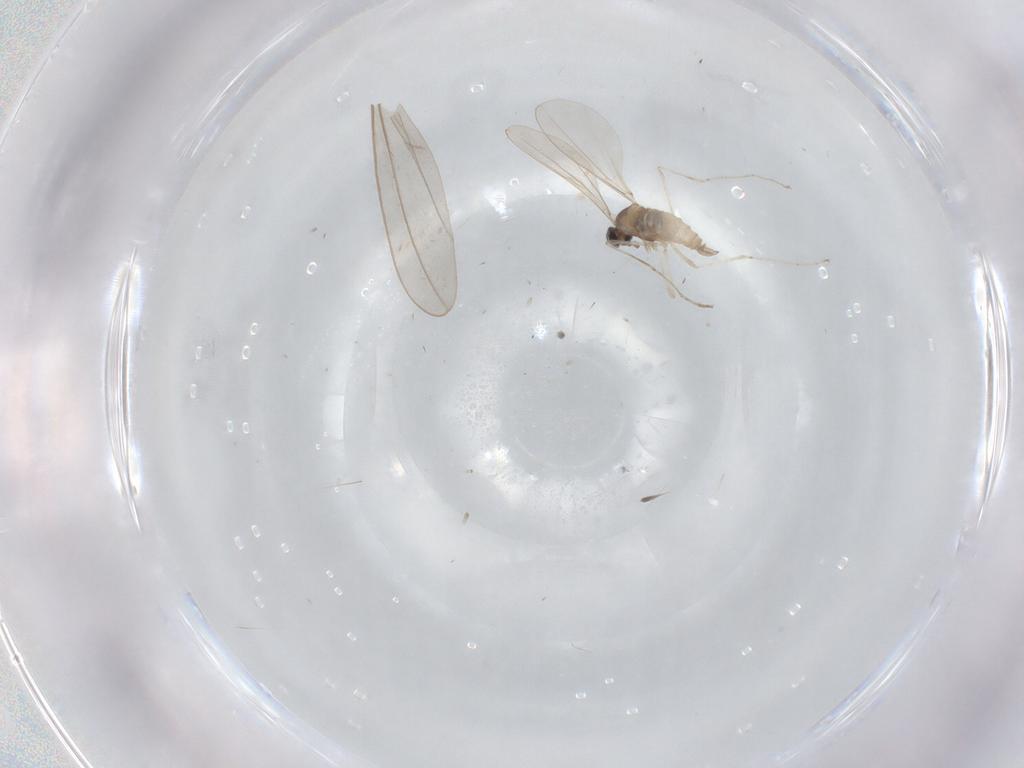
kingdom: Animalia
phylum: Arthropoda
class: Insecta
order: Diptera
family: Cecidomyiidae
